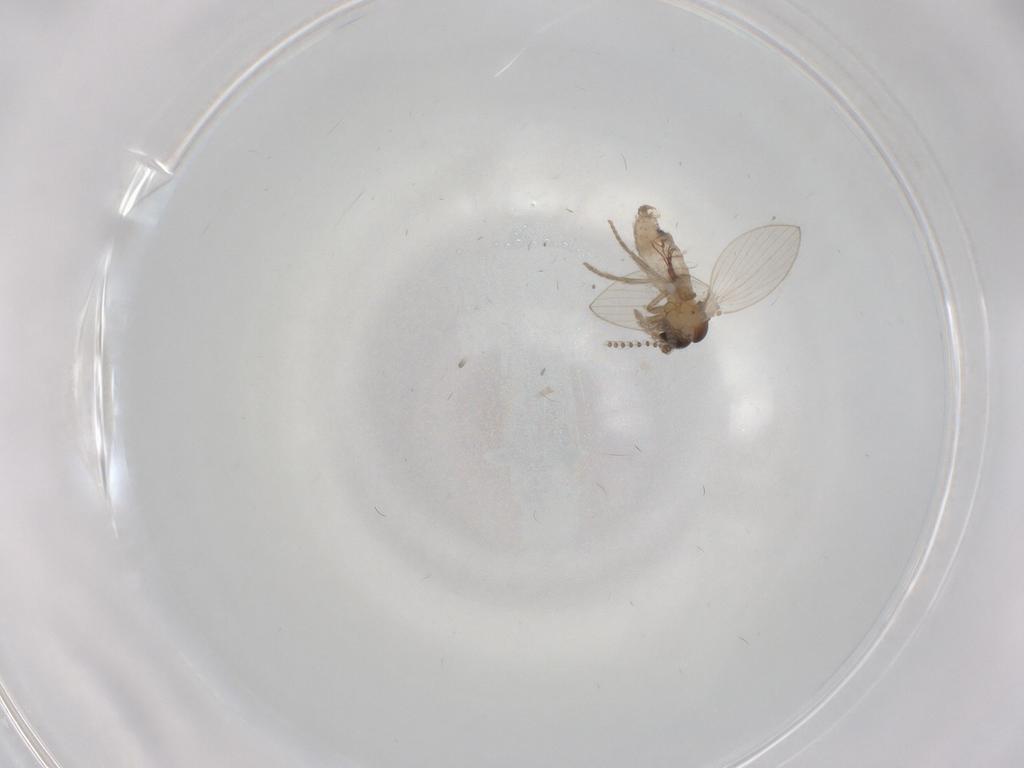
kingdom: Animalia
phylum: Arthropoda
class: Insecta
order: Diptera
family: Psychodidae
